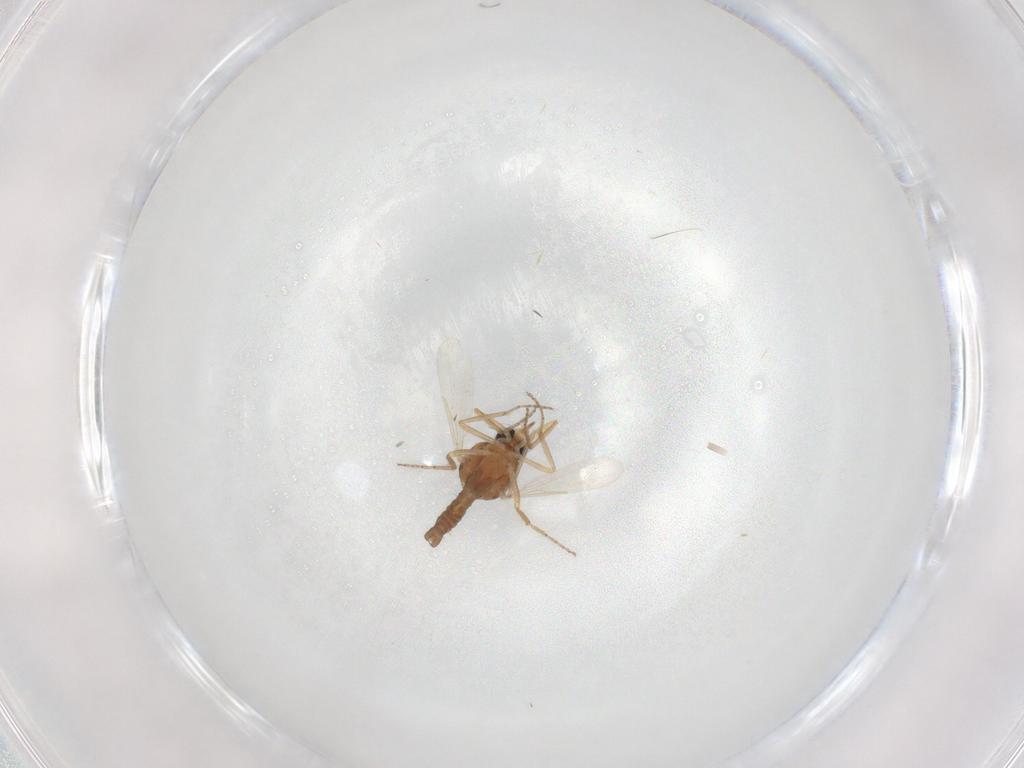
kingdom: Animalia
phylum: Arthropoda
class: Insecta
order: Diptera
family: Ceratopogonidae
